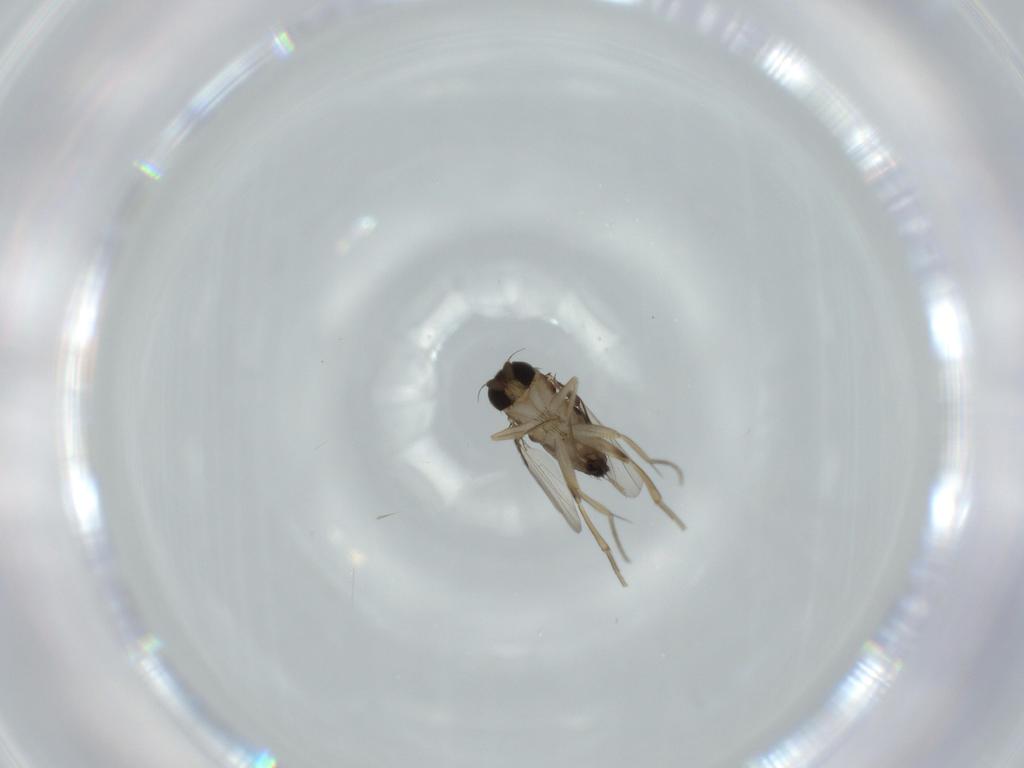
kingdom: Animalia
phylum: Arthropoda
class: Insecta
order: Diptera
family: Phoridae
